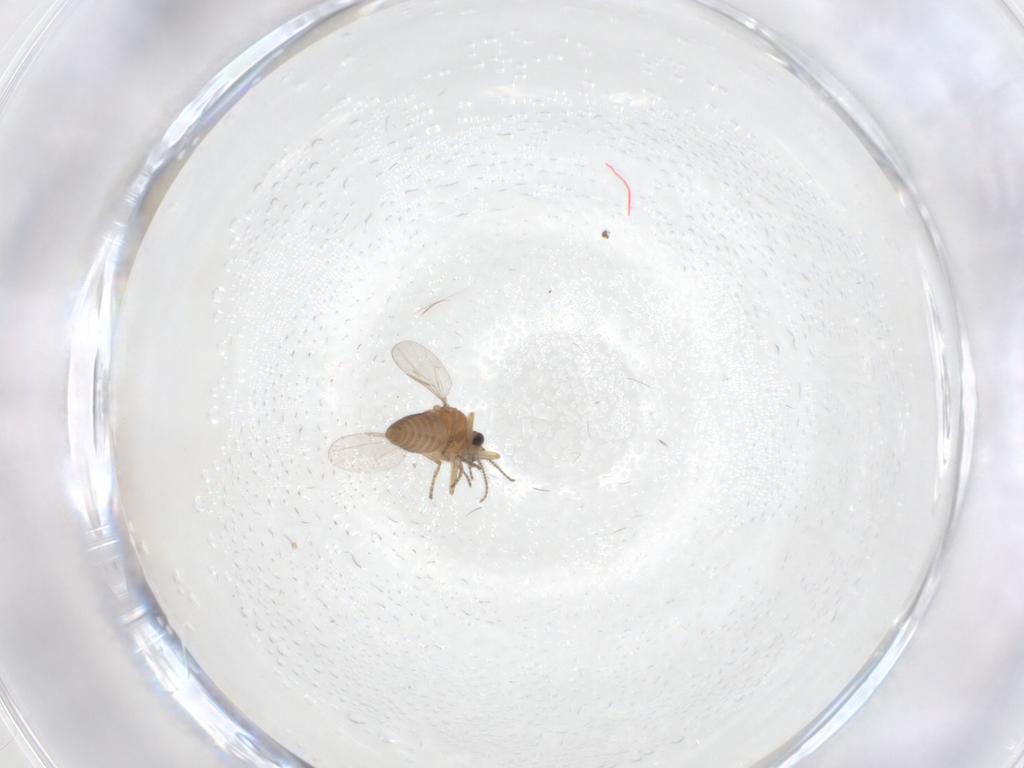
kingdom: Animalia
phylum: Arthropoda
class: Insecta
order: Diptera
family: Ceratopogonidae
